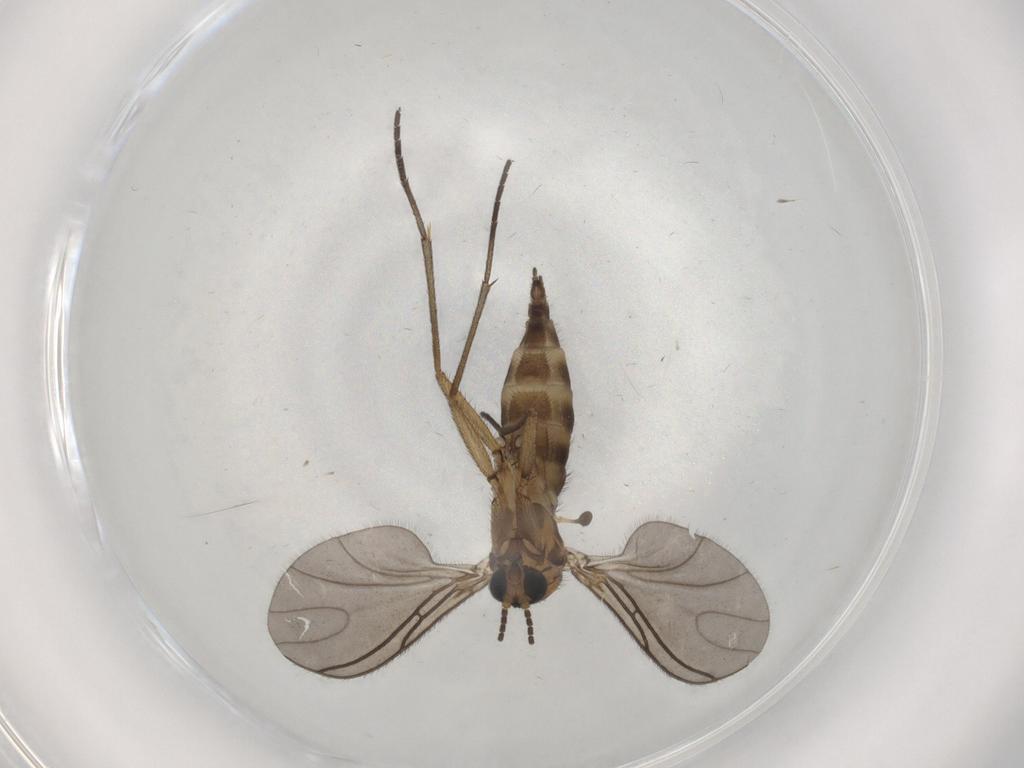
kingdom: Animalia
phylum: Arthropoda
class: Insecta
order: Diptera
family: Sciaridae
